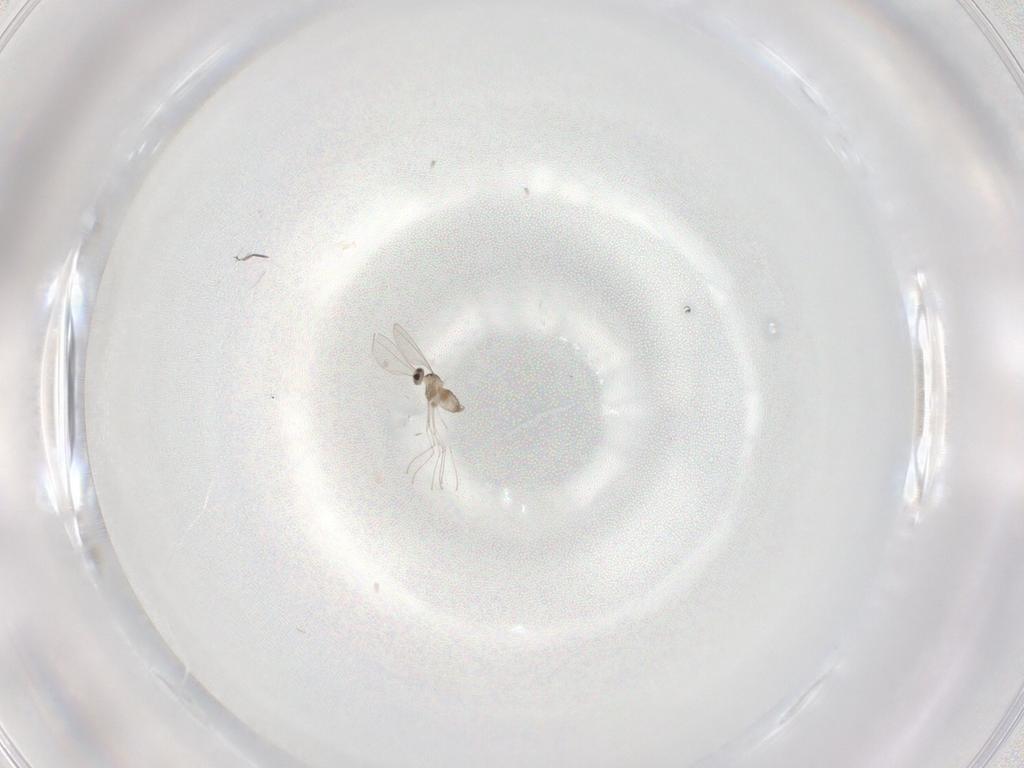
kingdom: Animalia
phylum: Arthropoda
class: Insecta
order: Diptera
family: Cecidomyiidae
